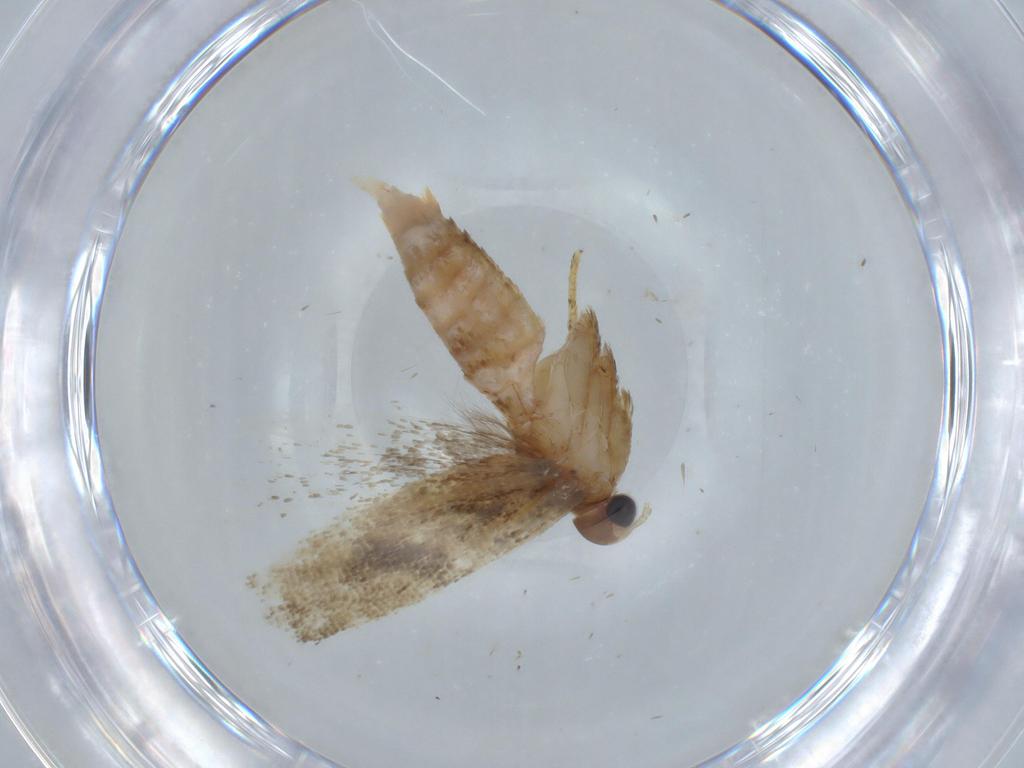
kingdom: Animalia
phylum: Arthropoda
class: Insecta
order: Lepidoptera
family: Gelechiidae
